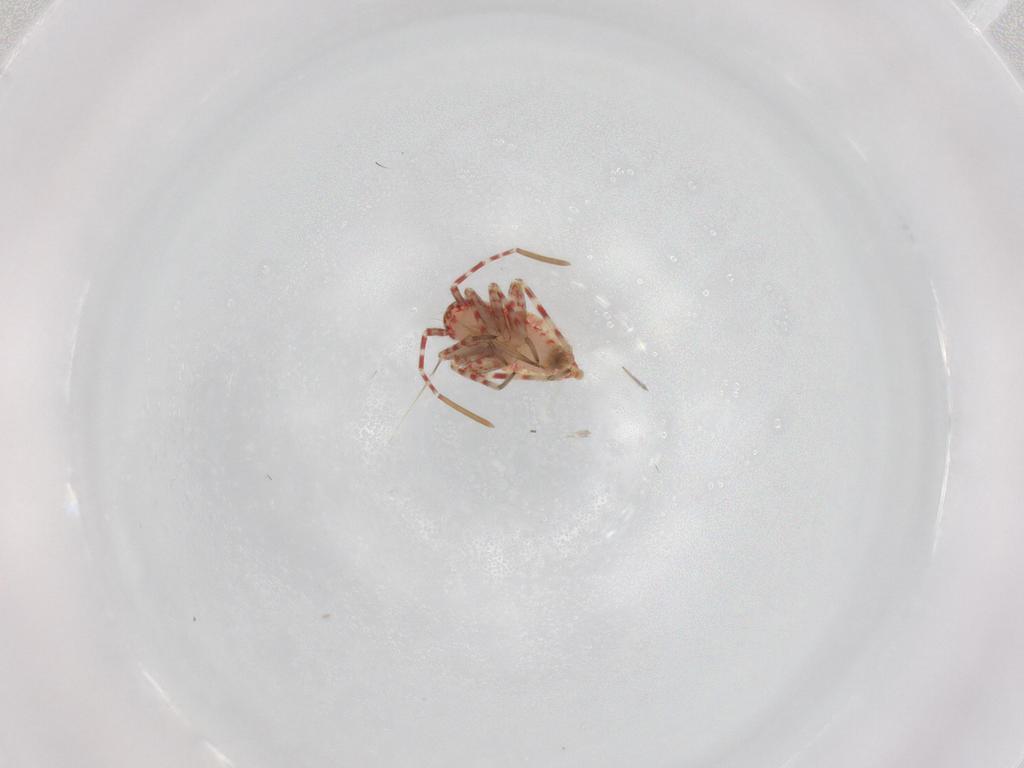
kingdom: Animalia
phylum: Arthropoda
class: Insecta
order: Hemiptera
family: Miridae
